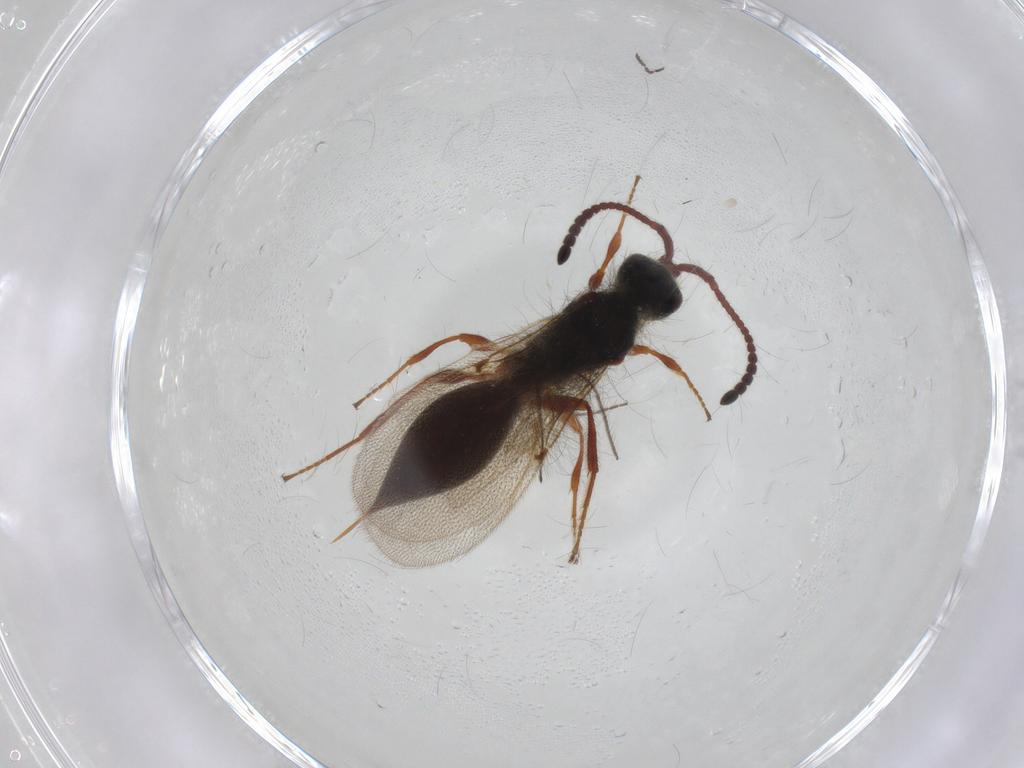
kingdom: Animalia
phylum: Arthropoda
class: Insecta
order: Hymenoptera
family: Diapriidae
